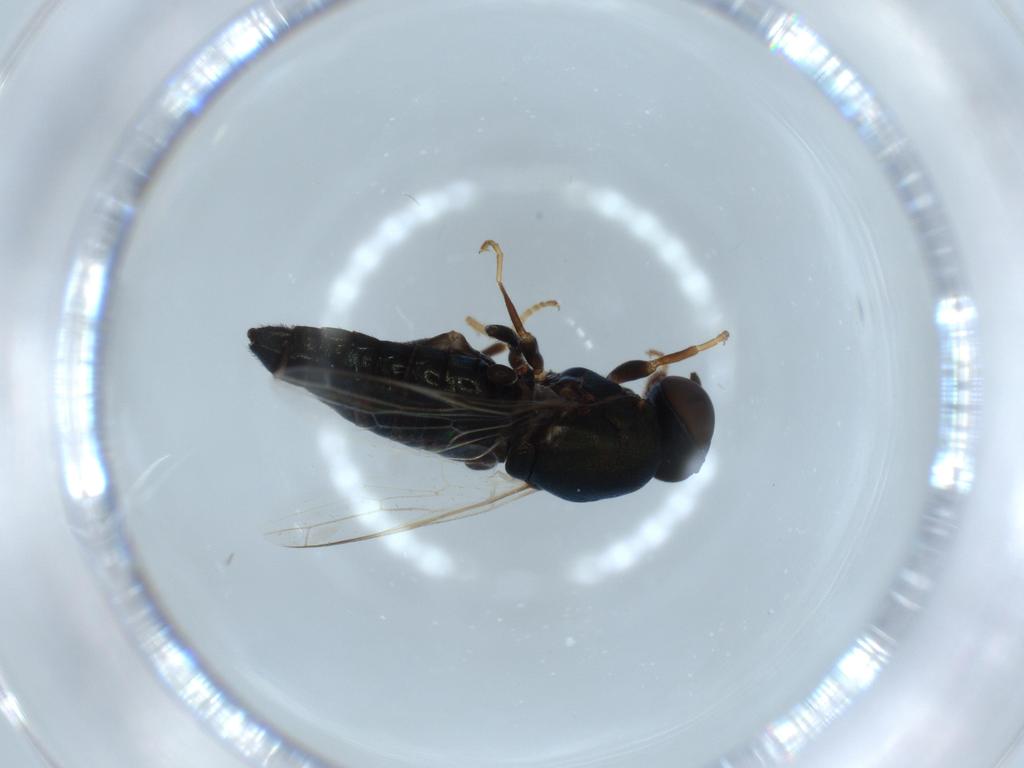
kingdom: Animalia
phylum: Arthropoda
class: Insecta
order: Diptera
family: Scenopinidae
